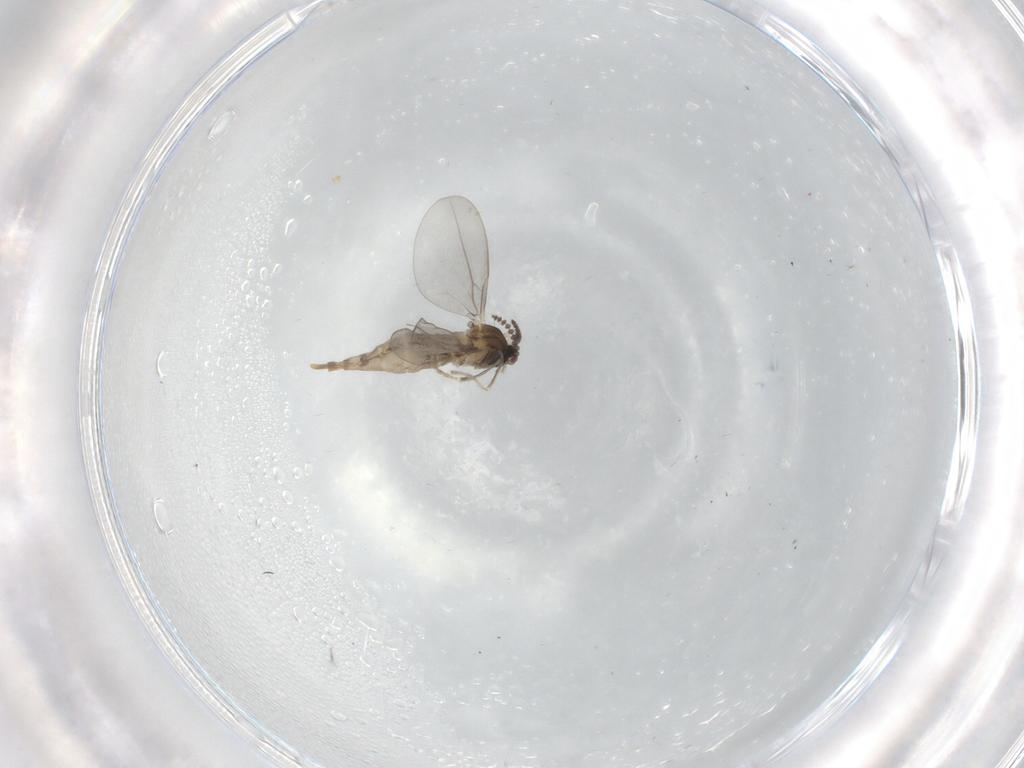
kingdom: Animalia
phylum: Arthropoda
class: Insecta
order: Diptera
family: Cecidomyiidae
